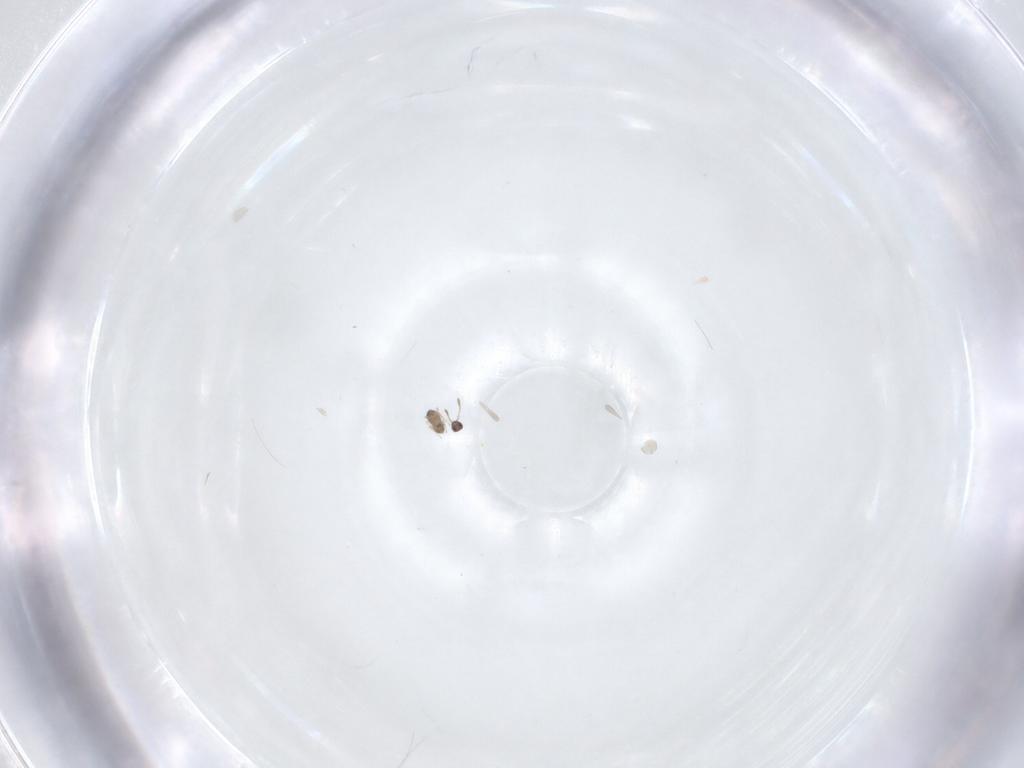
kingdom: Animalia
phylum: Arthropoda
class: Insecta
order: Hymenoptera
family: Mymaridae
